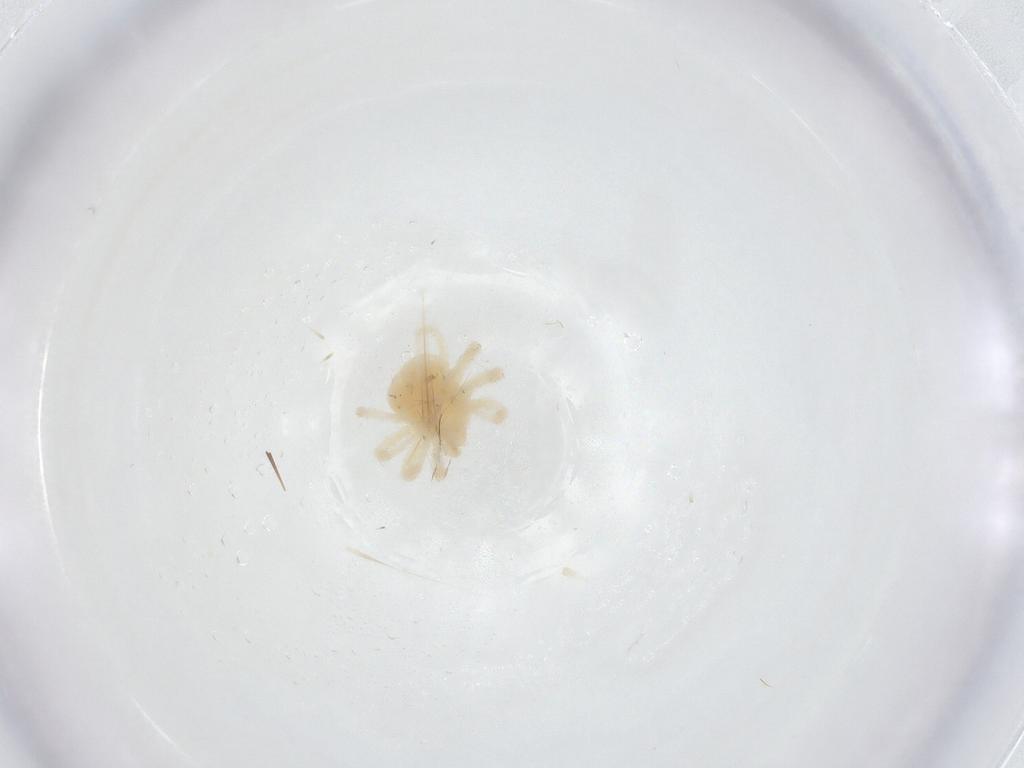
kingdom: Animalia
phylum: Arthropoda
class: Arachnida
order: Trombidiformes
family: Anystidae
